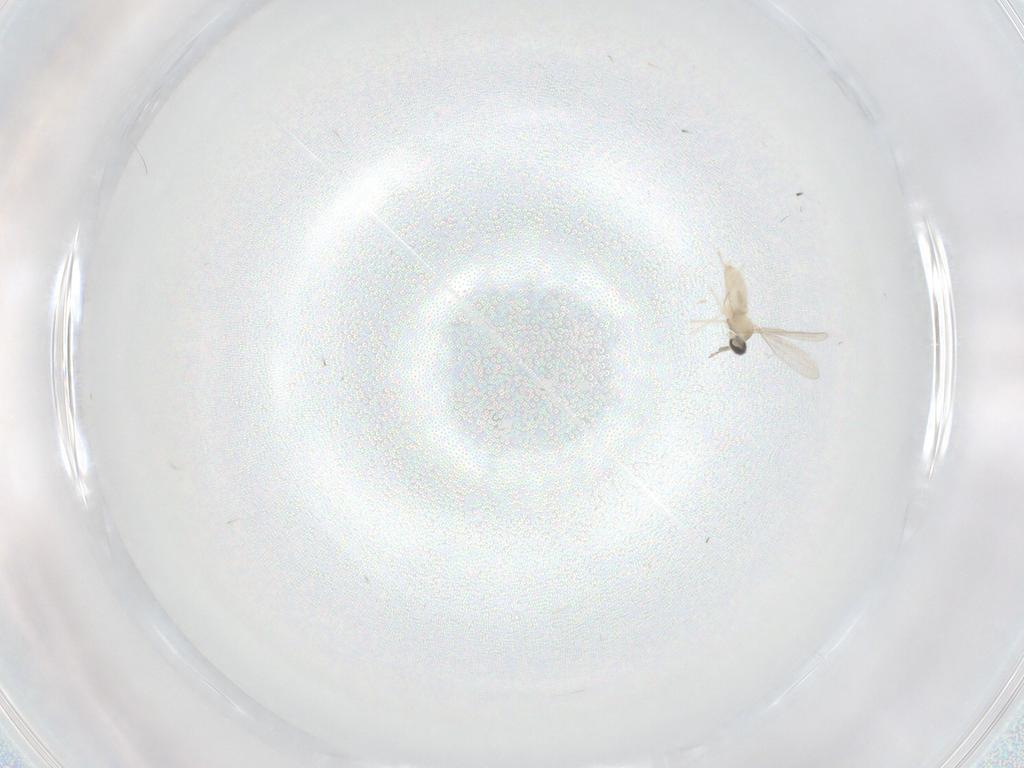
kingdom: Animalia
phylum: Arthropoda
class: Insecta
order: Diptera
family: Cecidomyiidae
